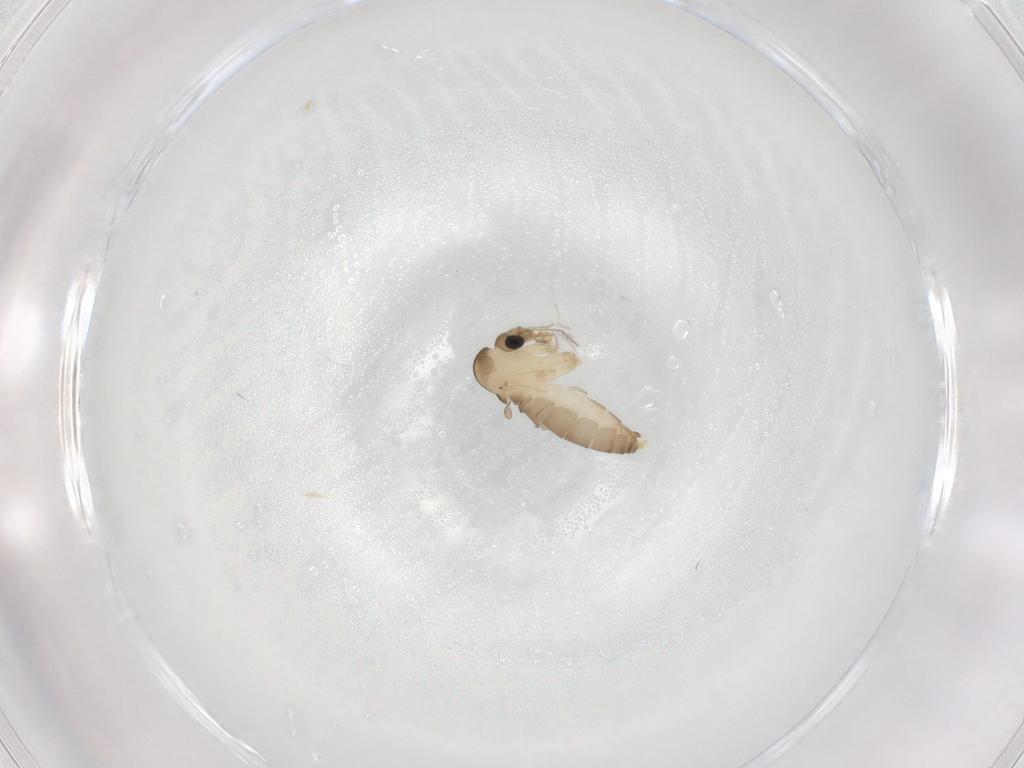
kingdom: Animalia
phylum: Arthropoda
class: Insecta
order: Diptera
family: Psychodidae
